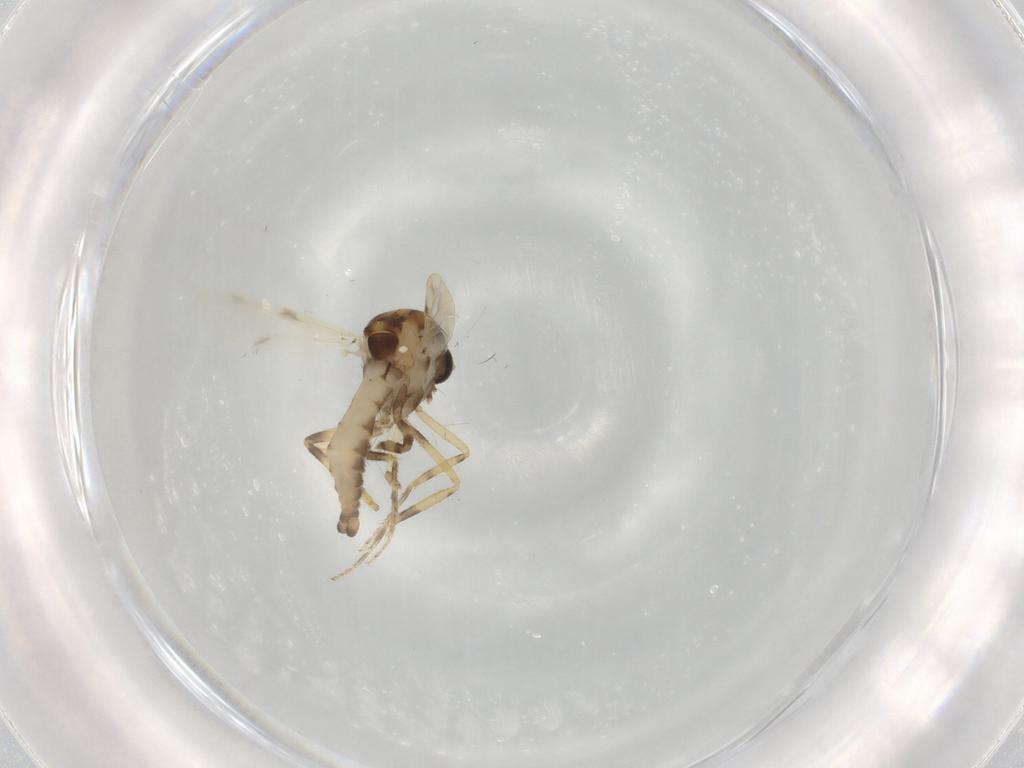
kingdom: Animalia
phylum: Arthropoda
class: Insecta
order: Diptera
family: Ceratopogonidae
